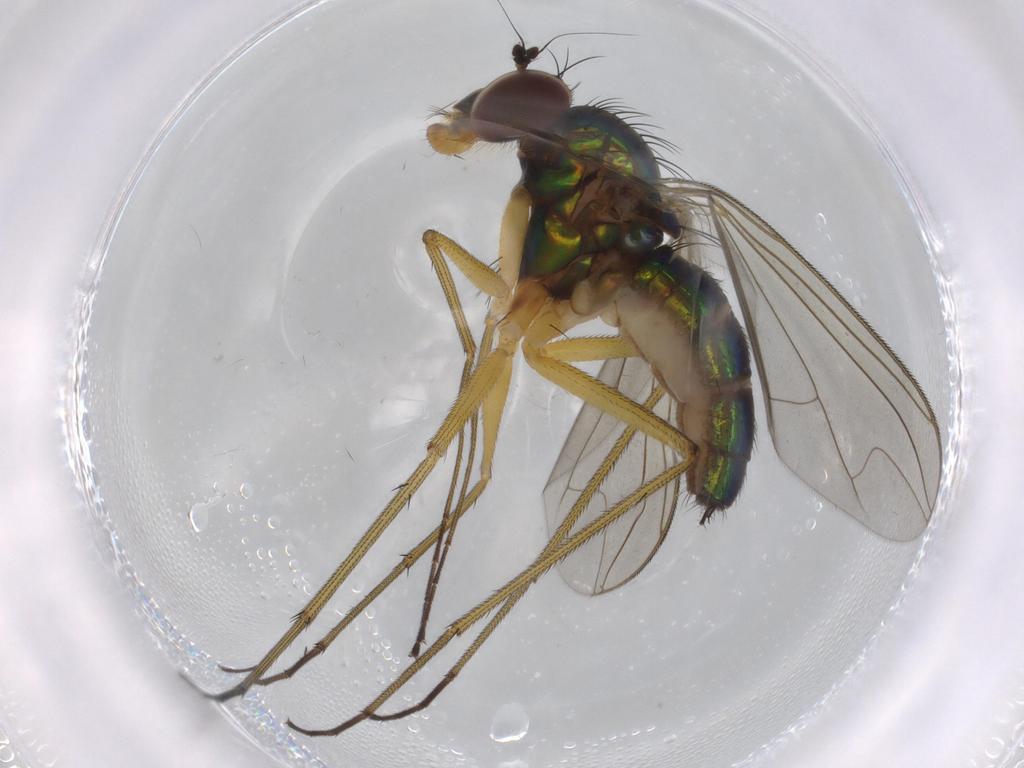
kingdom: Animalia
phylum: Arthropoda
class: Insecta
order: Diptera
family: Dolichopodidae
